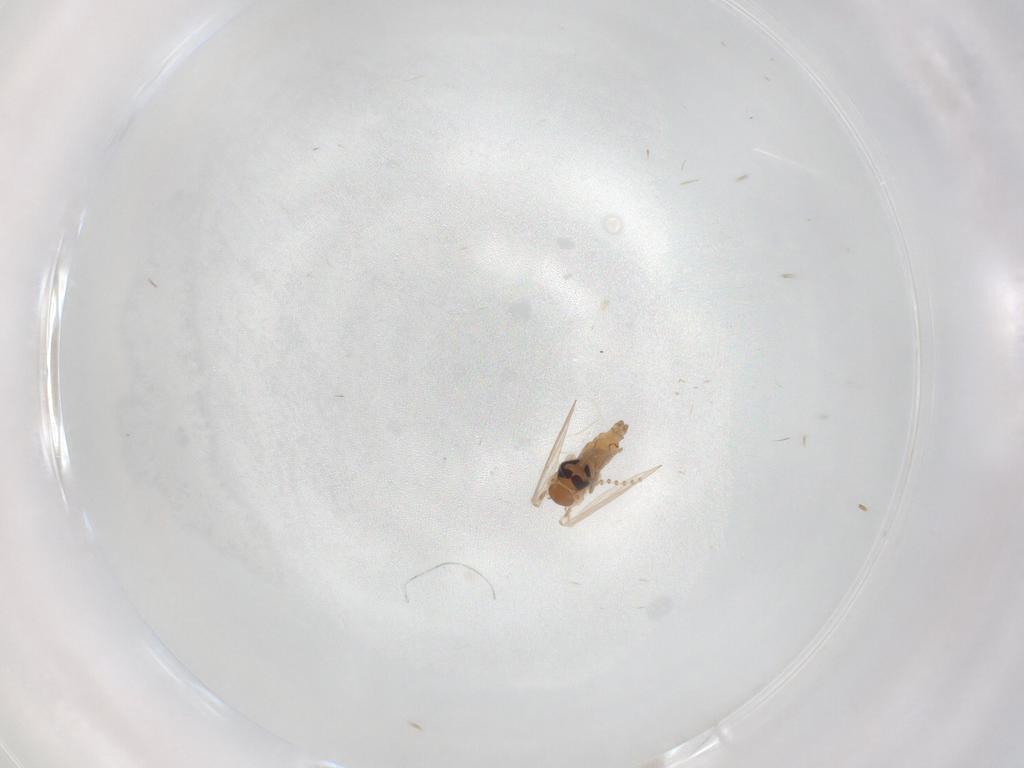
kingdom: Animalia
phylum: Arthropoda
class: Insecta
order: Diptera
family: Psychodidae
